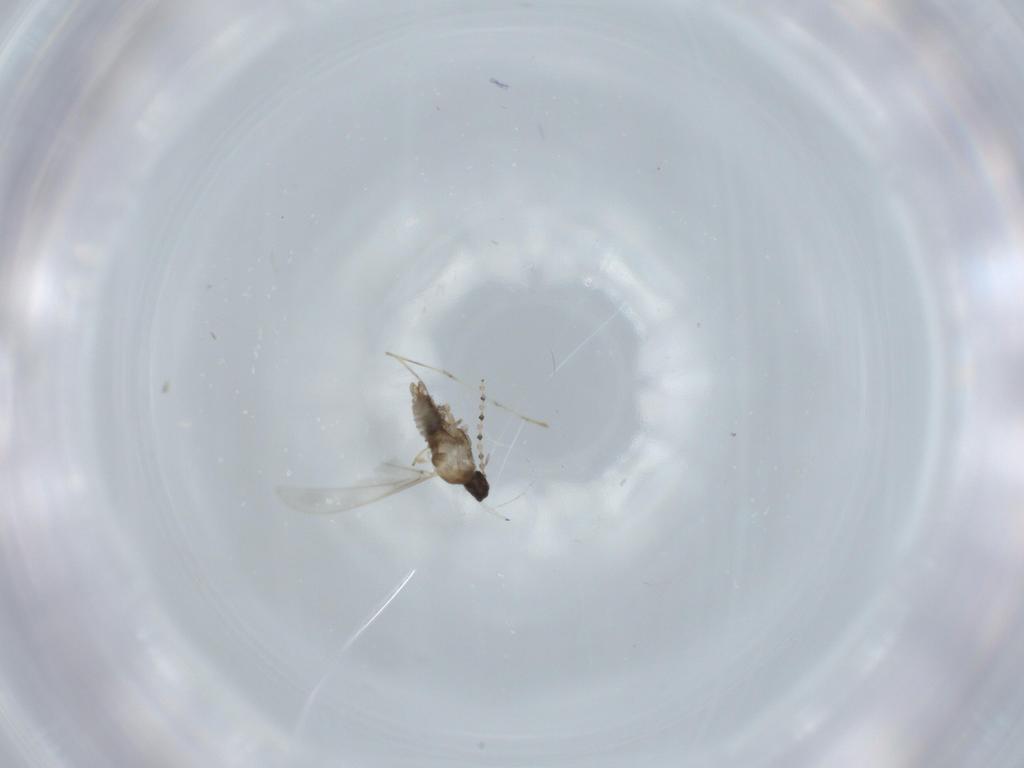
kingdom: Animalia
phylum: Arthropoda
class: Insecta
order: Diptera
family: Cecidomyiidae
